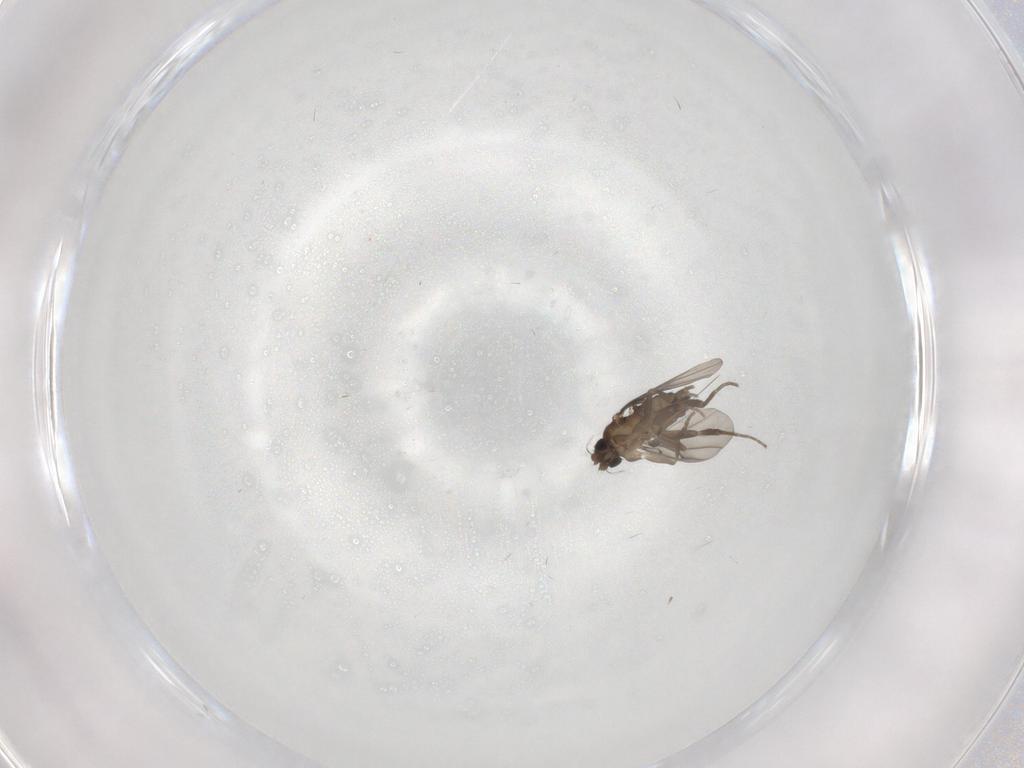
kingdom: Animalia
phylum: Arthropoda
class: Insecta
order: Diptera
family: Phoridae
